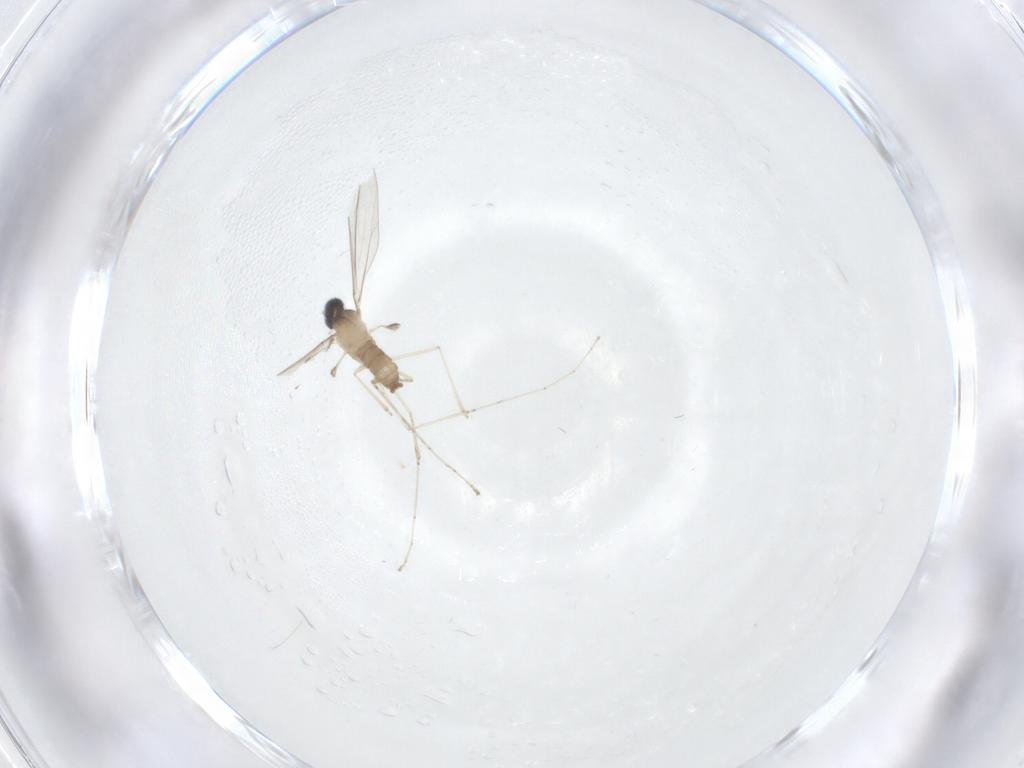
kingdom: Animalia
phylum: Arthropoda
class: Insecta
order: Diptera
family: Cecidomyiidae
